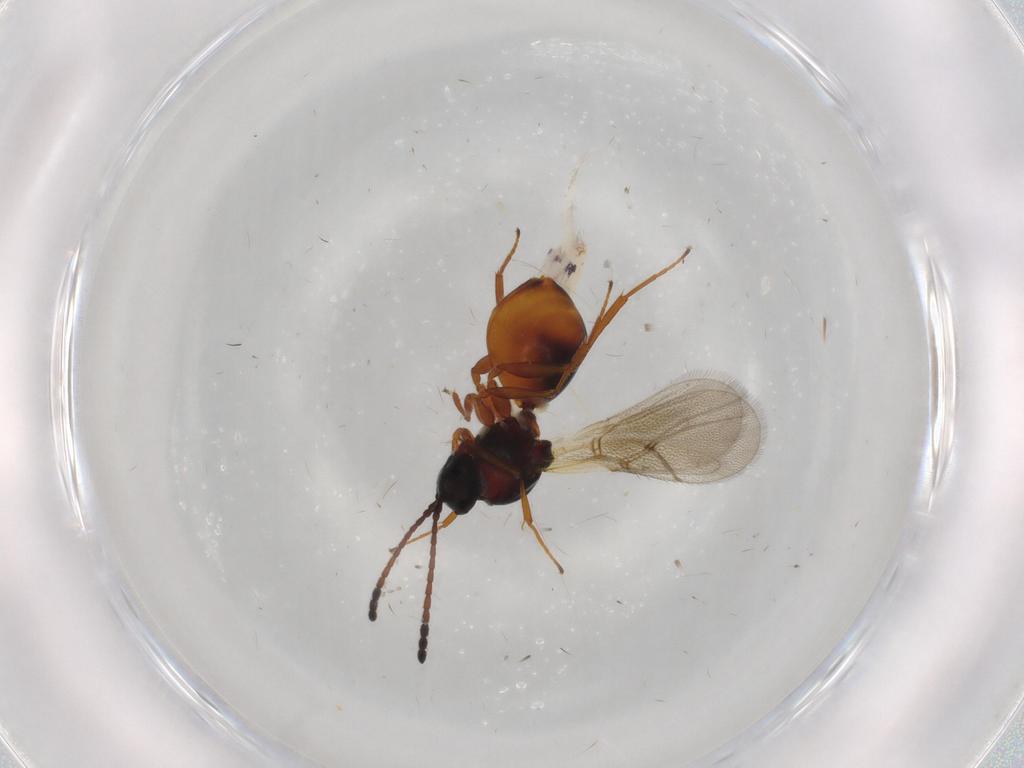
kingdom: Animalia
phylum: Arthropoda
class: Insecta
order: Hymenoptera
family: Figitidae
